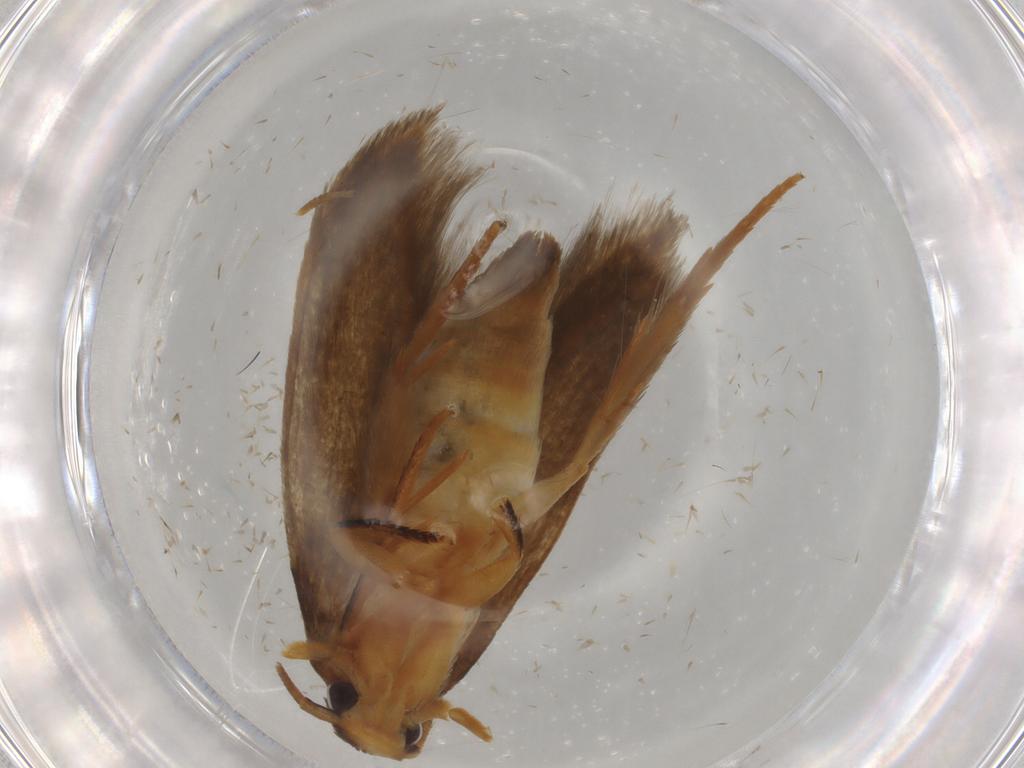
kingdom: Animalia
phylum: Arthropoda
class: Insecta
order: Lepidoptera
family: Tineidae
